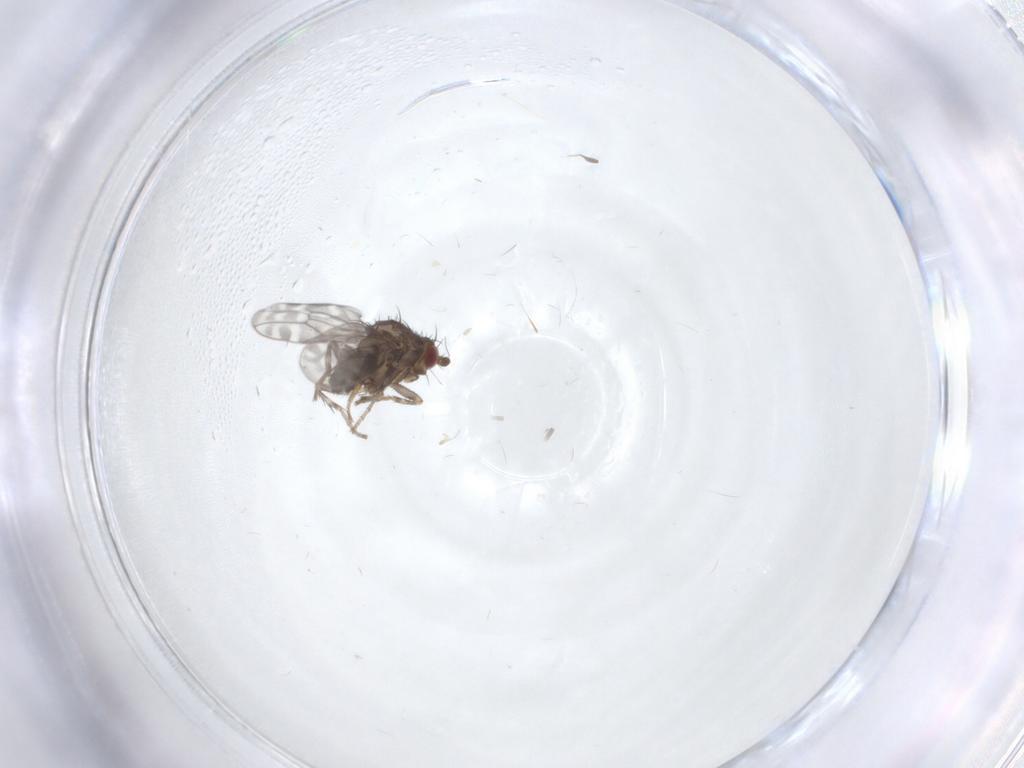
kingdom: Animalia
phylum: Arthropoda
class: Insecta
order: Diptera
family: Sphaeroceridae
